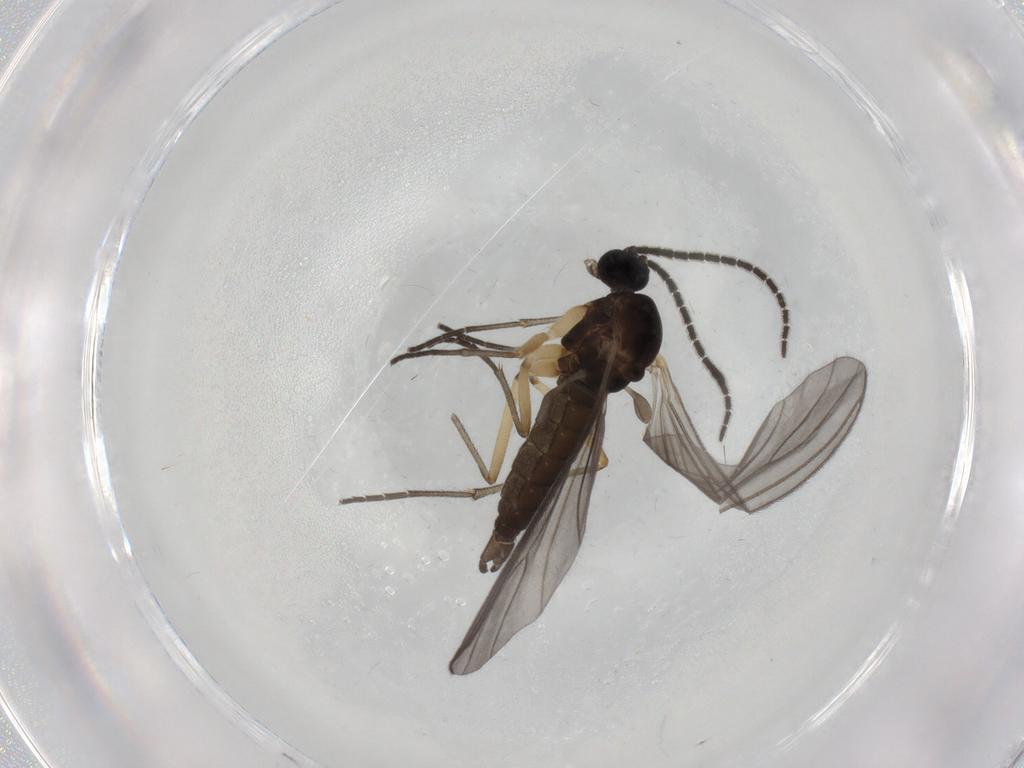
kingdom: Animalia
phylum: Arthropoda
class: Insecta
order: Diptera
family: Sciaridae
